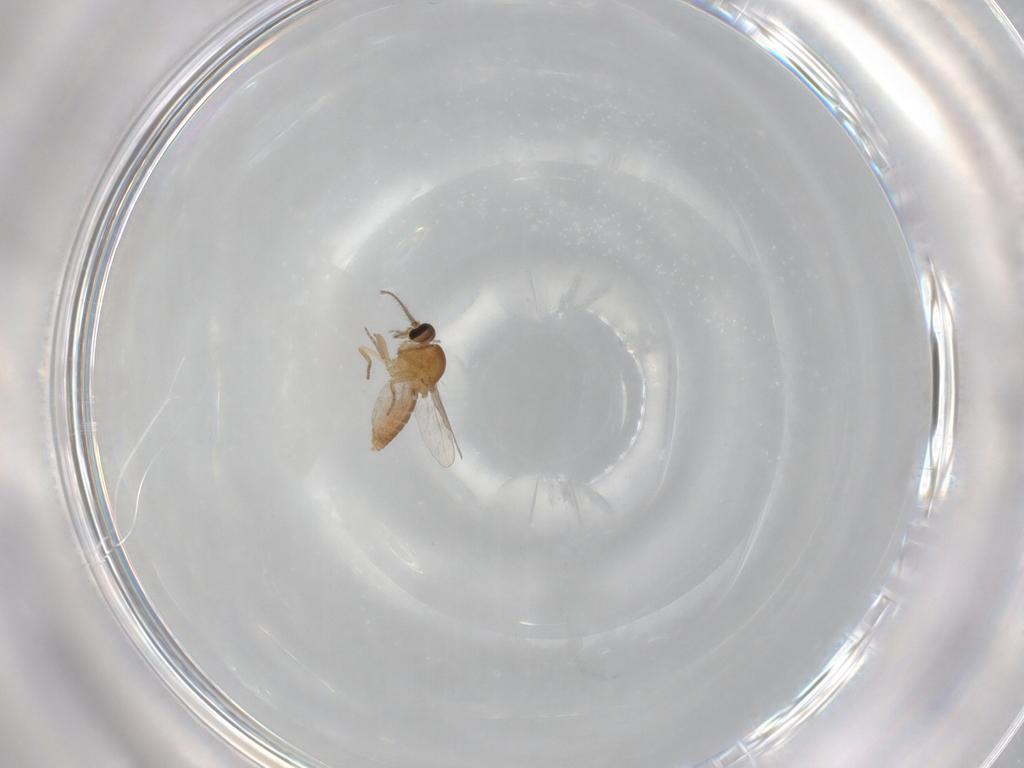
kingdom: Animalia
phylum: Arthropoda
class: Insecta
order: Diptera
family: Ceratopogonidae
